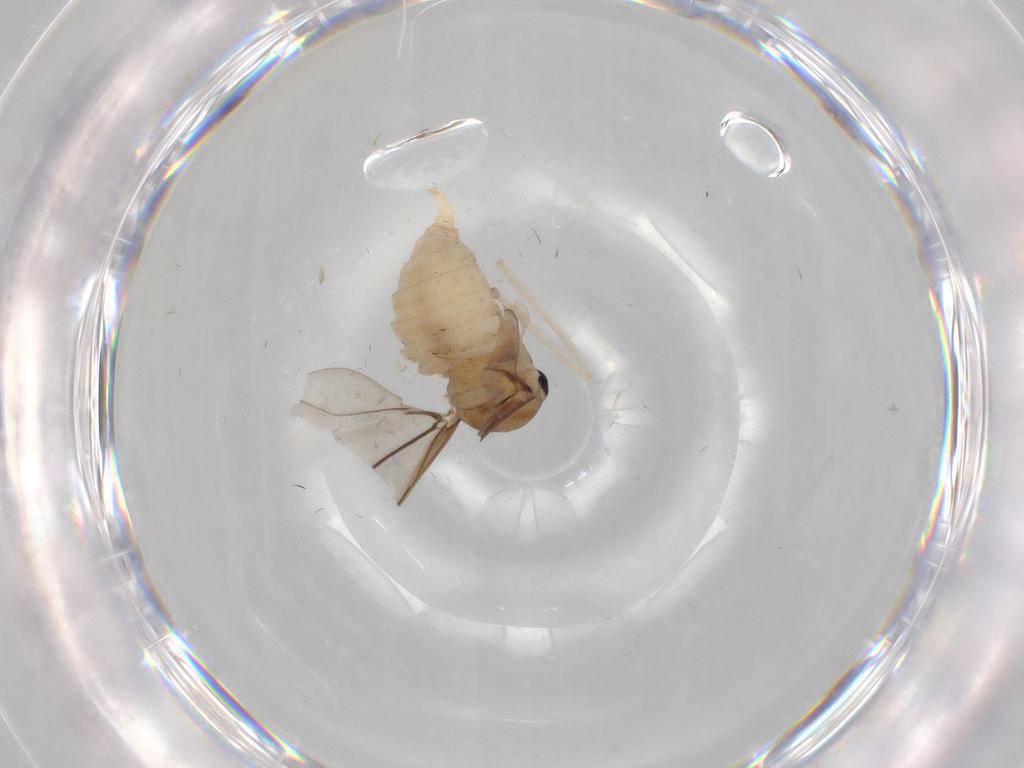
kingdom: Animalia
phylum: Arthropoda
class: Insecta
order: Diptera
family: Cecidomyiidae
